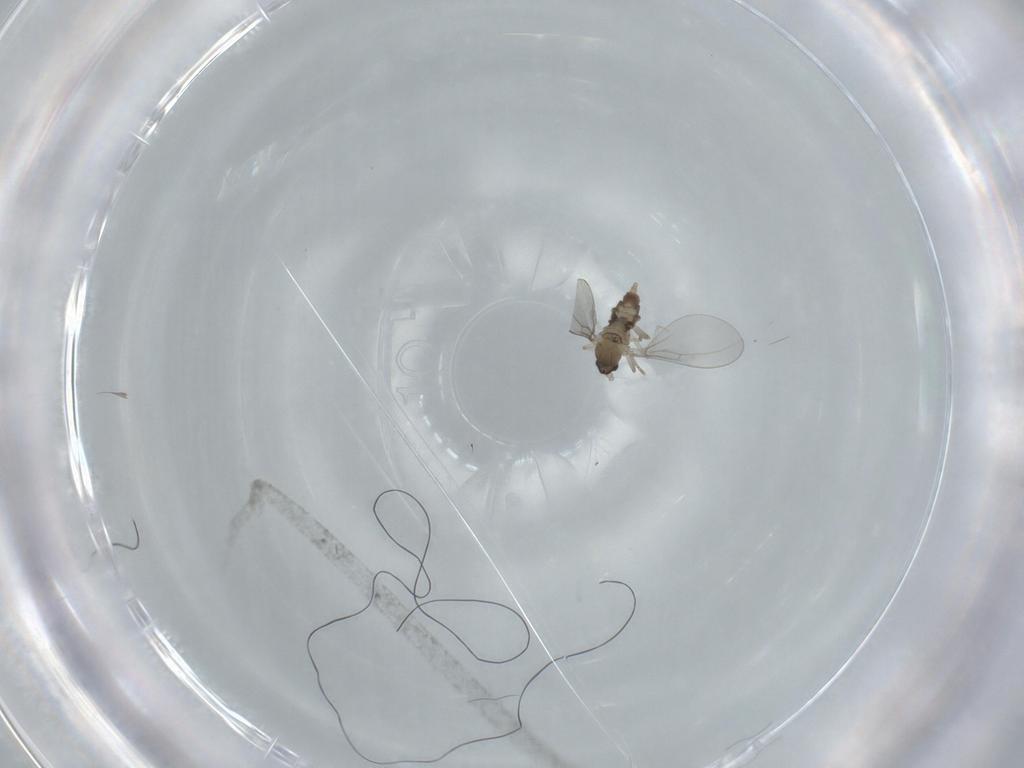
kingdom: Animalia
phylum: Arthropoda
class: Insecta
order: Diptera
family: Cecidomyiidae
